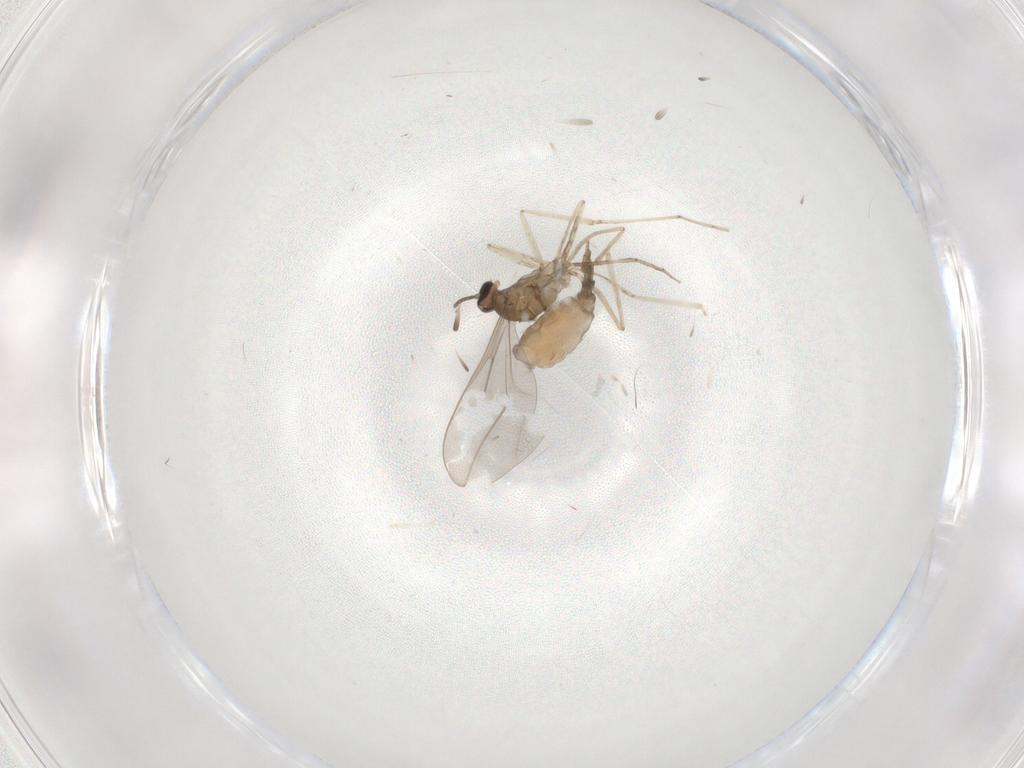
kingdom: Animalia
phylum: Arthropoda
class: Insecta
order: Diptera
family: Cecidomyiidae
